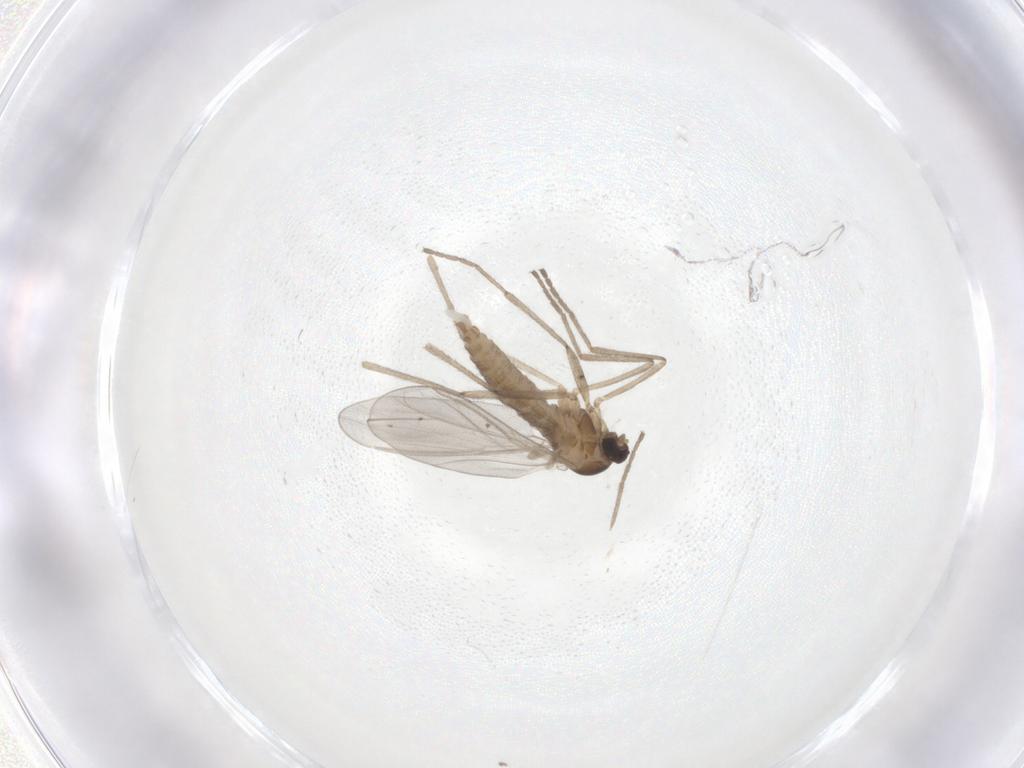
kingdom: Animalia
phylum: Arthropoda
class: Insecta
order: Diptera
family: Cecidomyiidae
